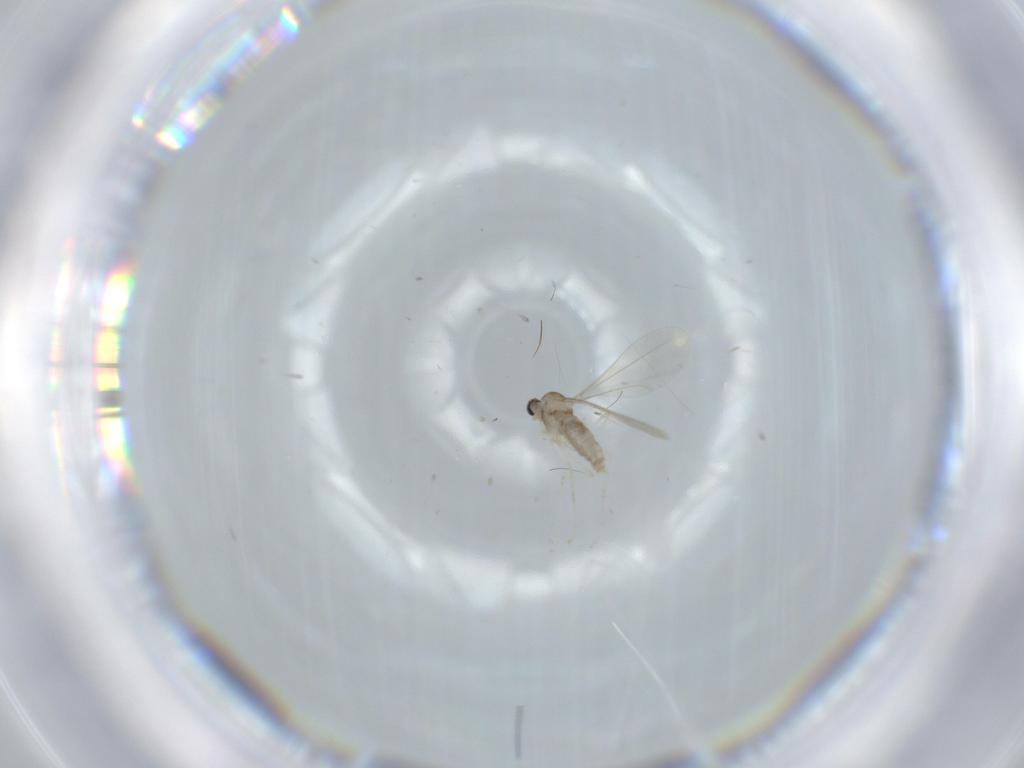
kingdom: Animalia
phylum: Arthropoda
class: Insecta
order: Diptera
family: Cecidomyiidae
